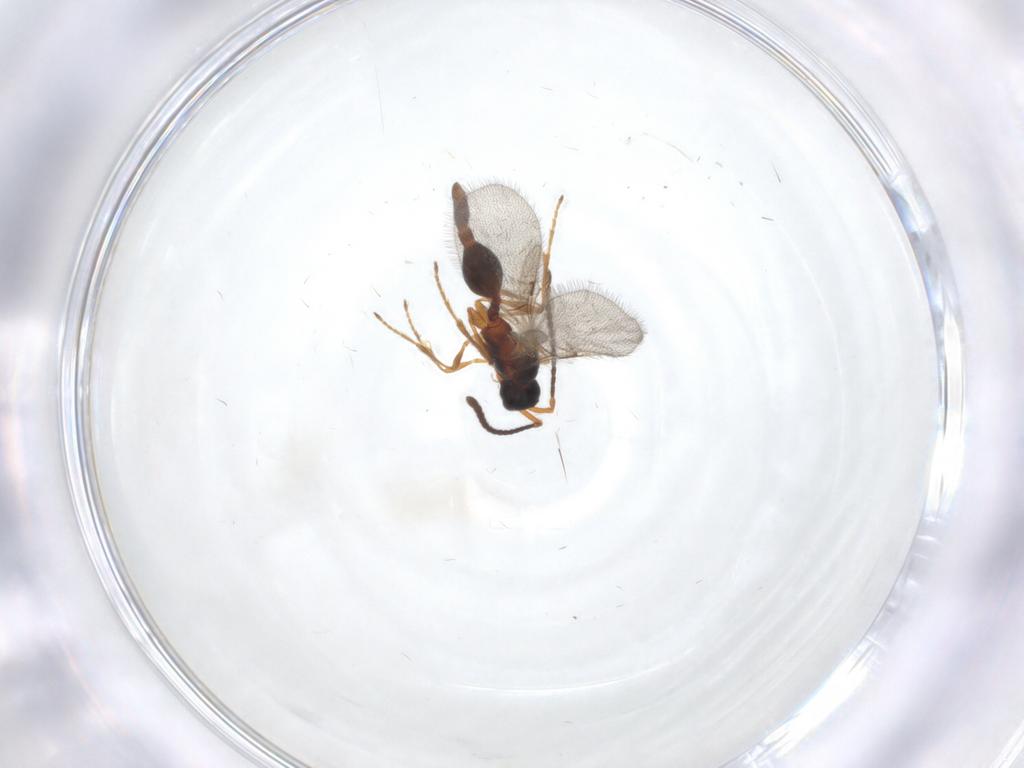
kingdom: Animalia
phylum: Arthropoda
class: Insecta
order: Hymenoptera
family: Diapriidae
